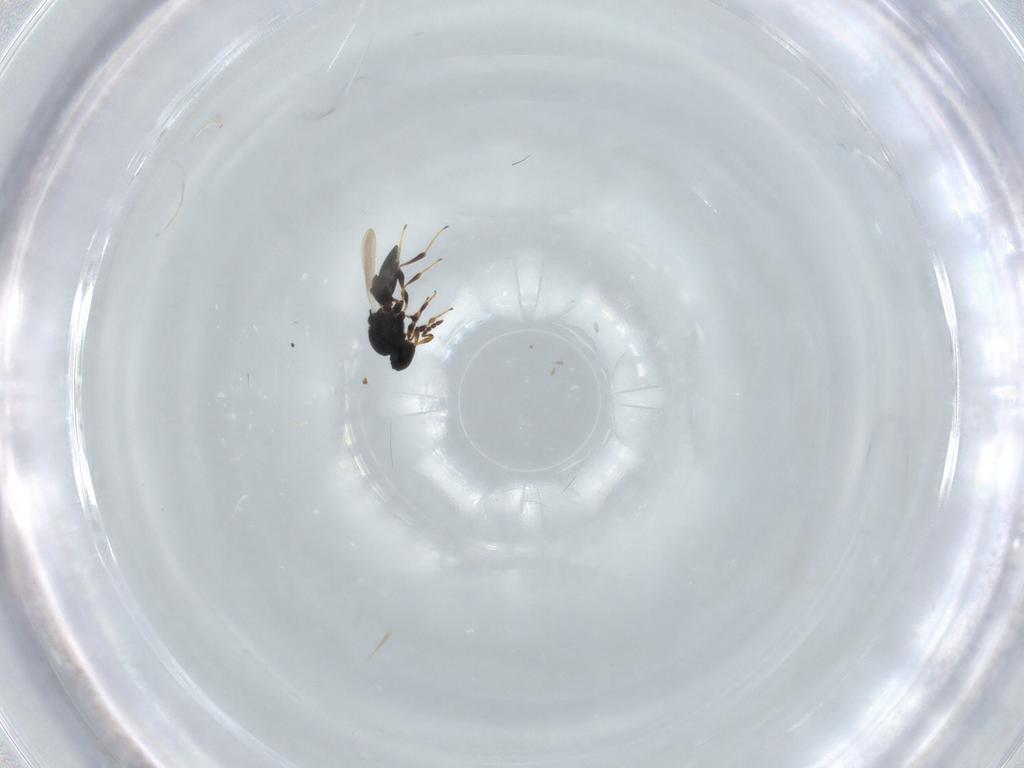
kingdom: Animalia
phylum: Arthropoda
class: Insecta
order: Hymenoptera
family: Platygastridae
